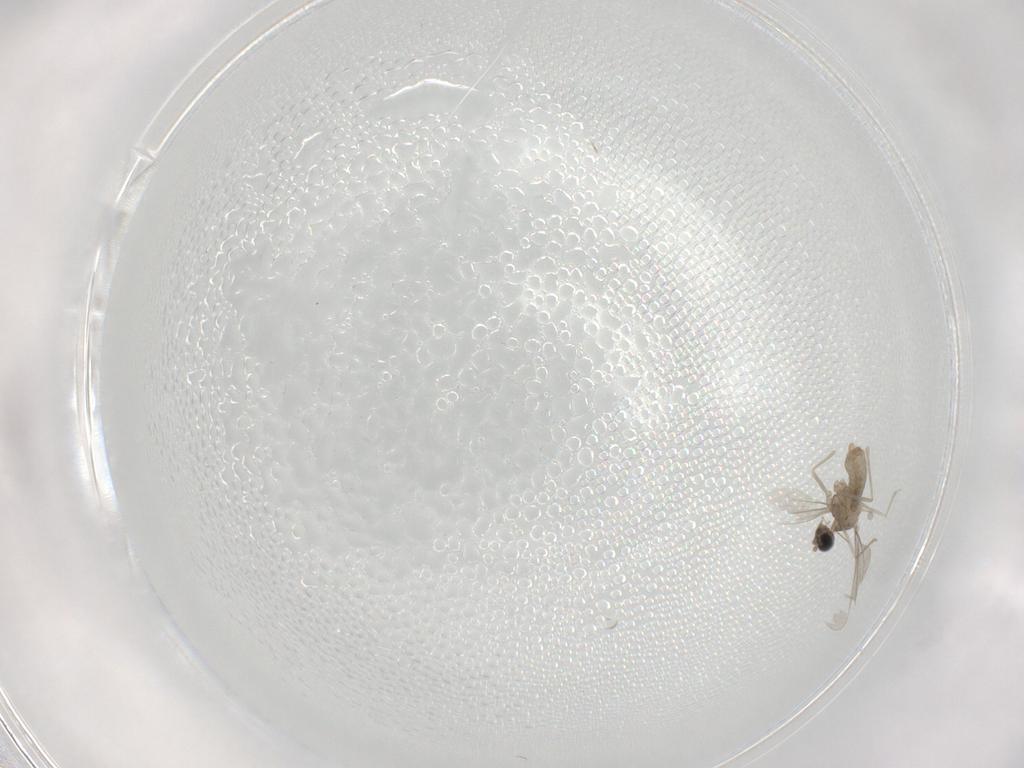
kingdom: Animalia
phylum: Arthropoda
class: Insecta
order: Diptera
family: Cecidomyiidae
